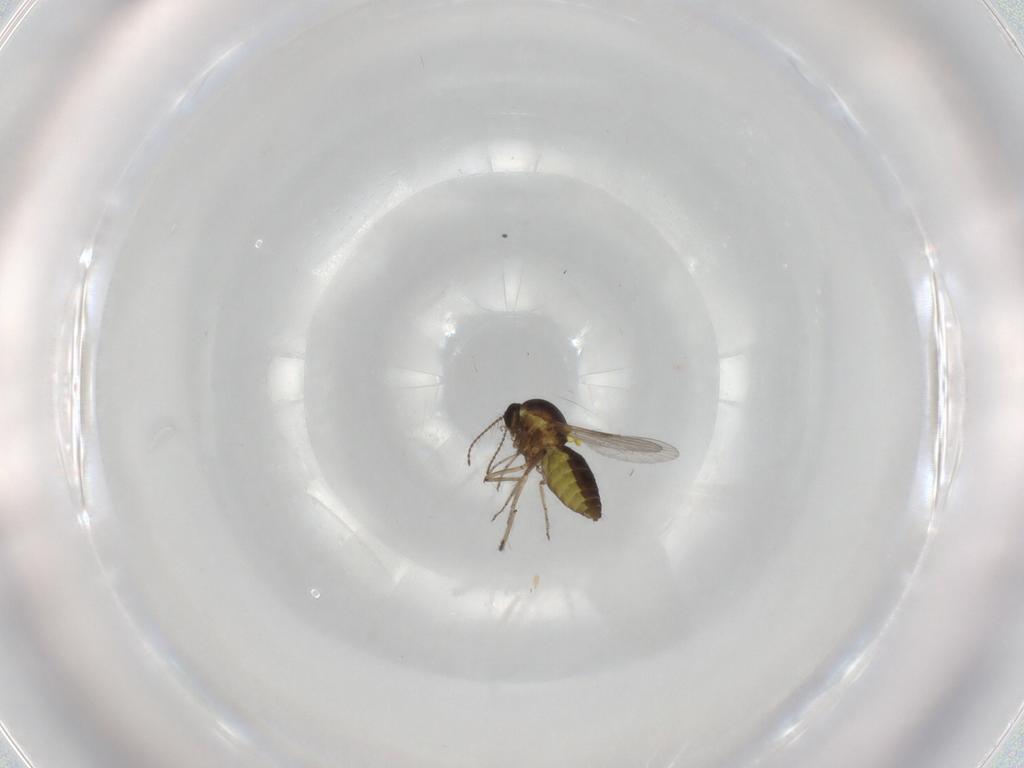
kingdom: Animalia
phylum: Arthropoda
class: Insecta
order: Diptera
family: Ceratopogonidae
